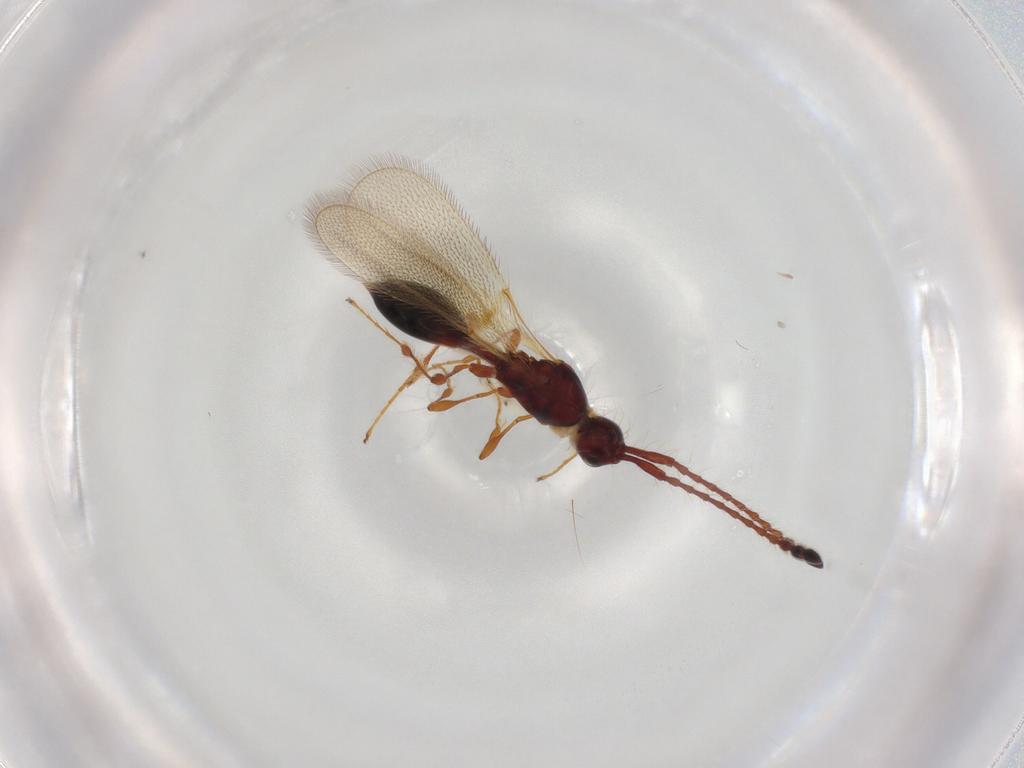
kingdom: Animalia
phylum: Arthropoda
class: Insecta
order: Hymenoptera
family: Diapriidae
